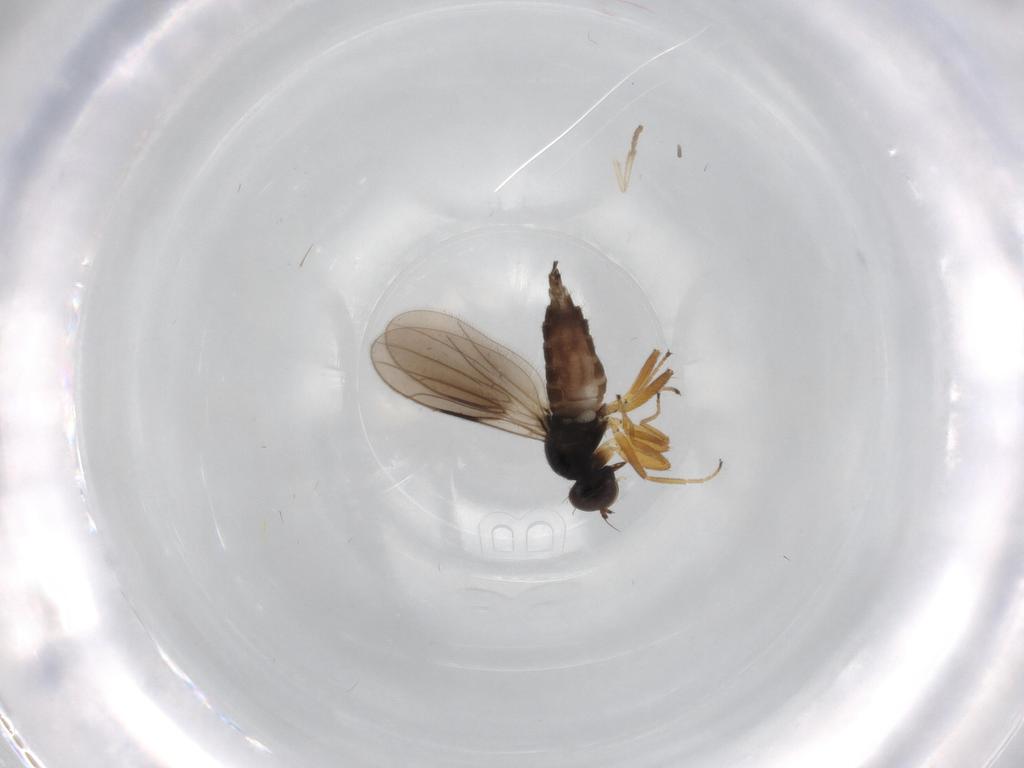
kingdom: Animalia
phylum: Arthropoda
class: Insecta
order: Diptera
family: Hybotidae
